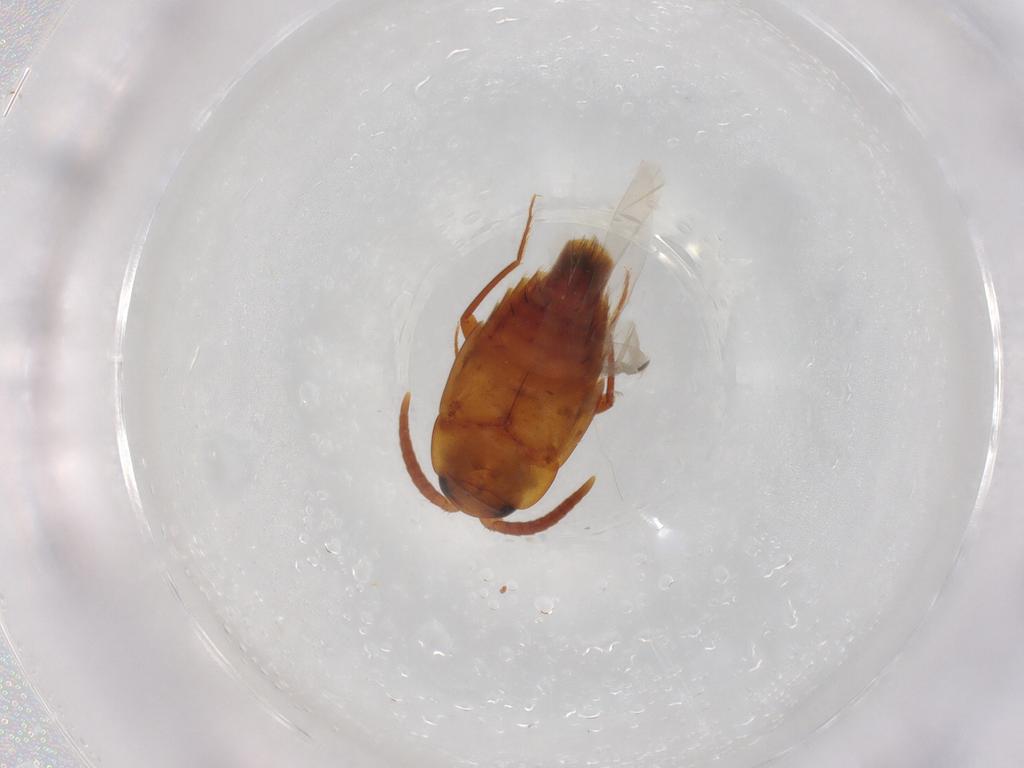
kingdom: Animalia
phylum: Arthropoda
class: Insecta
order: Coleoptera
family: Staphylinidae
